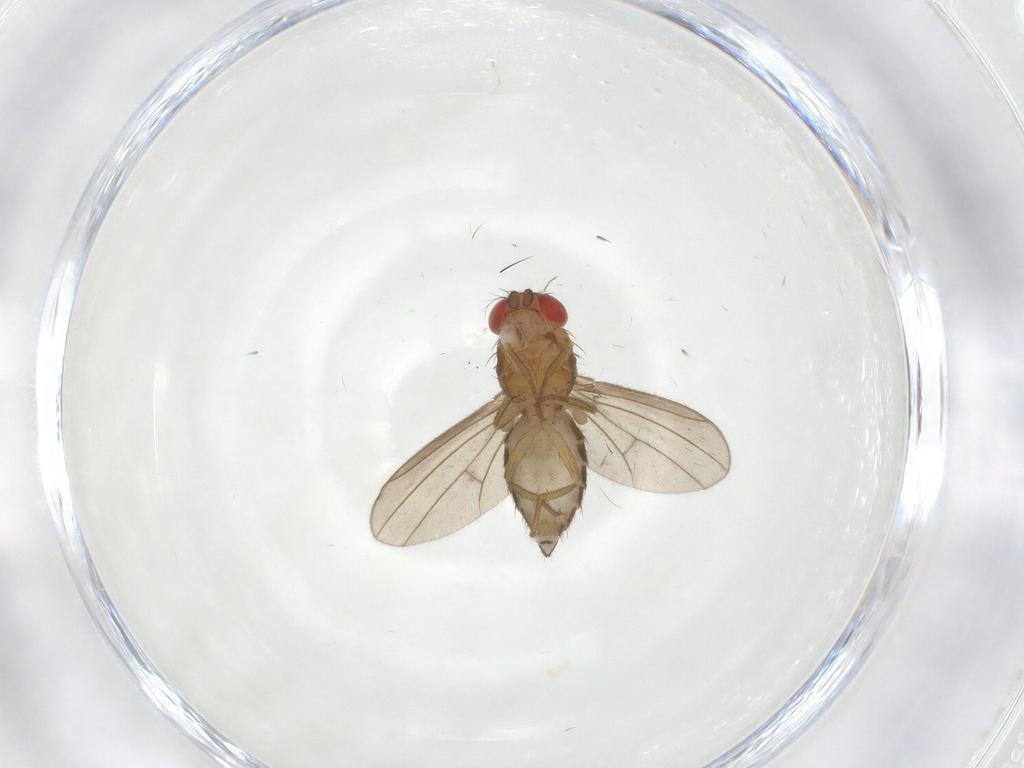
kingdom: Animalia
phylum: Arthropoda
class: Insecta
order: Diptera
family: Drosophilidae
